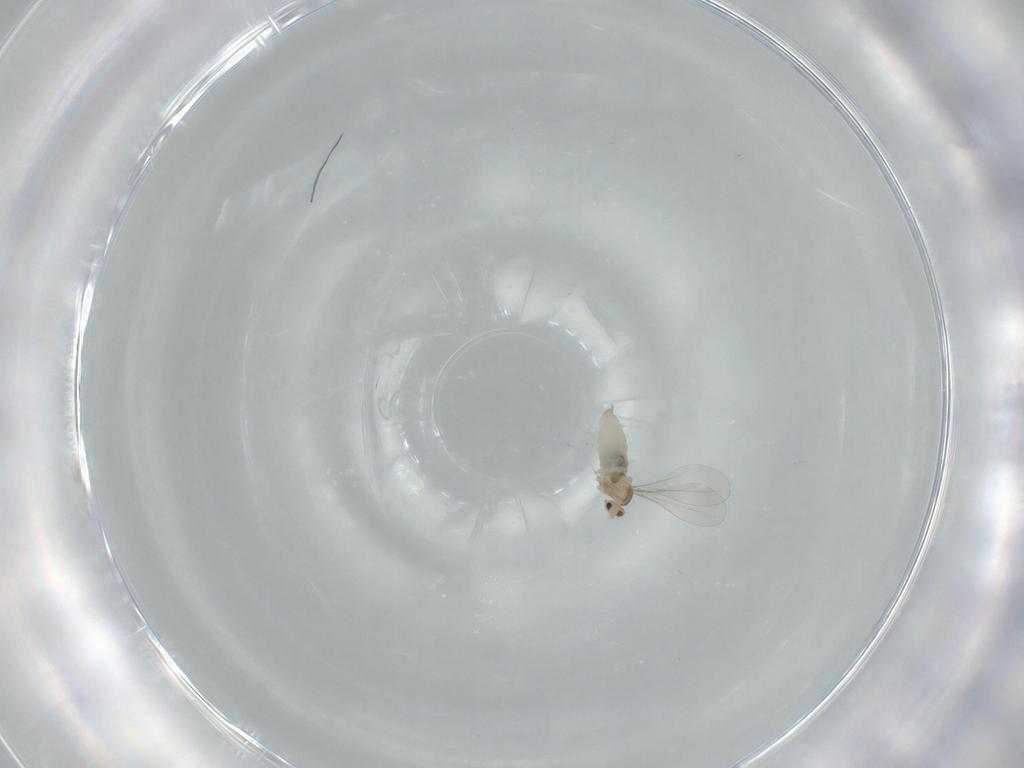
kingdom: Animalia
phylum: Arthropoda
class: Insecta
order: Diptera
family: Cecidomyiidae
